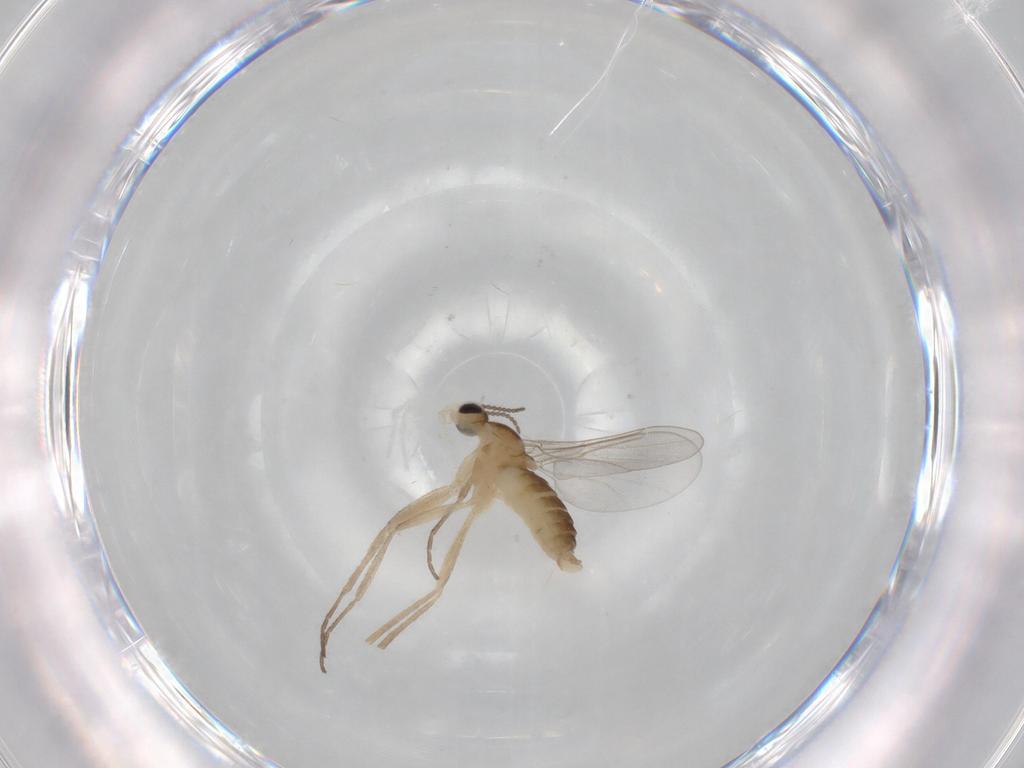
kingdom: Animalia
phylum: Arthropoda
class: Insecta
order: Diptera
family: Cecidomyiidae
